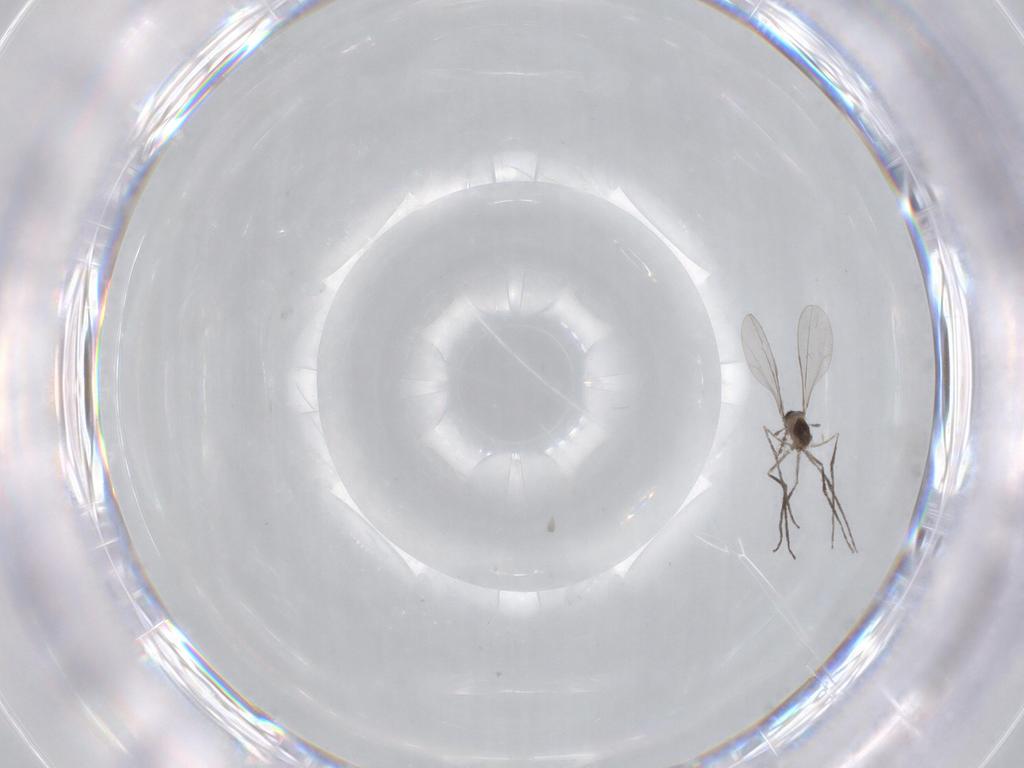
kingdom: Animalia
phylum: Arthropoda
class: Insecta
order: Diptera
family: Cecidomyiidae
